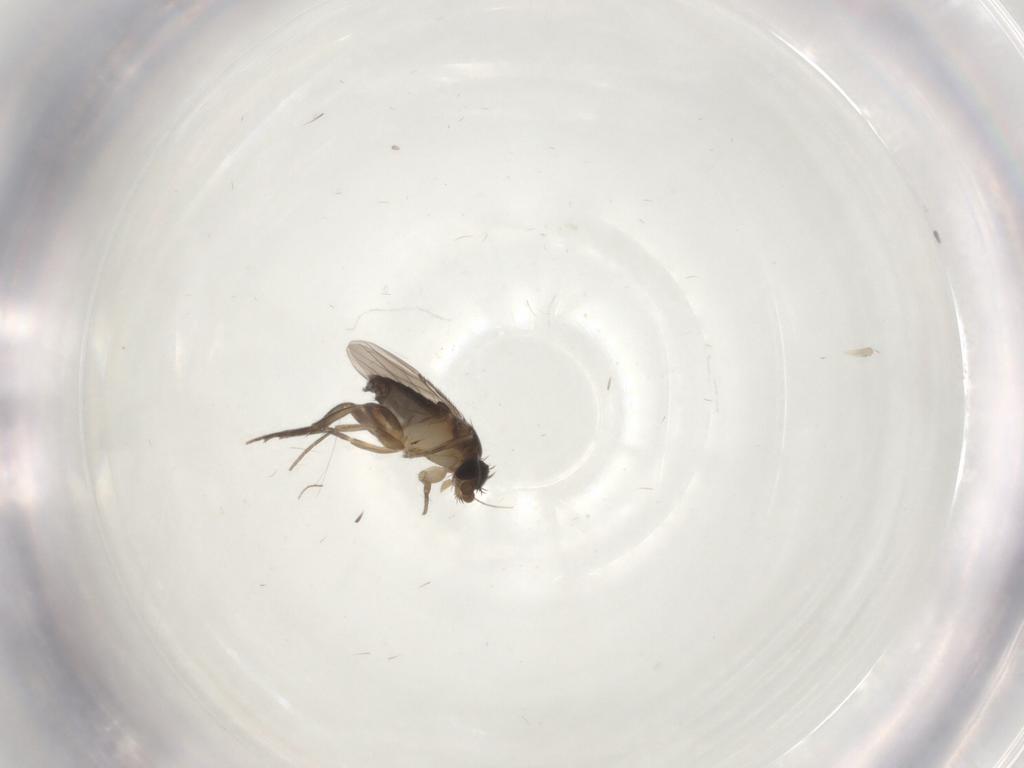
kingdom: Animalia
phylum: Arthropoda
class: Insecta
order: Diptera
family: Phoridae
